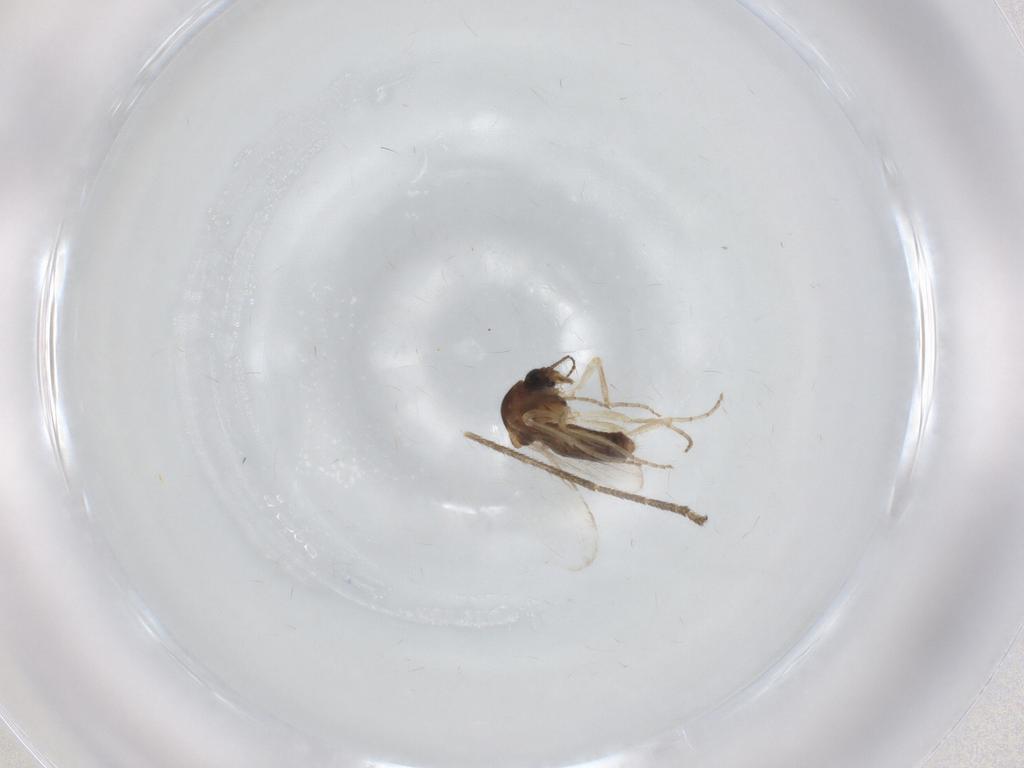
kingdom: Animalia
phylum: Arthropoda
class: Insecta
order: Diptera
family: Ceratopogonidae
